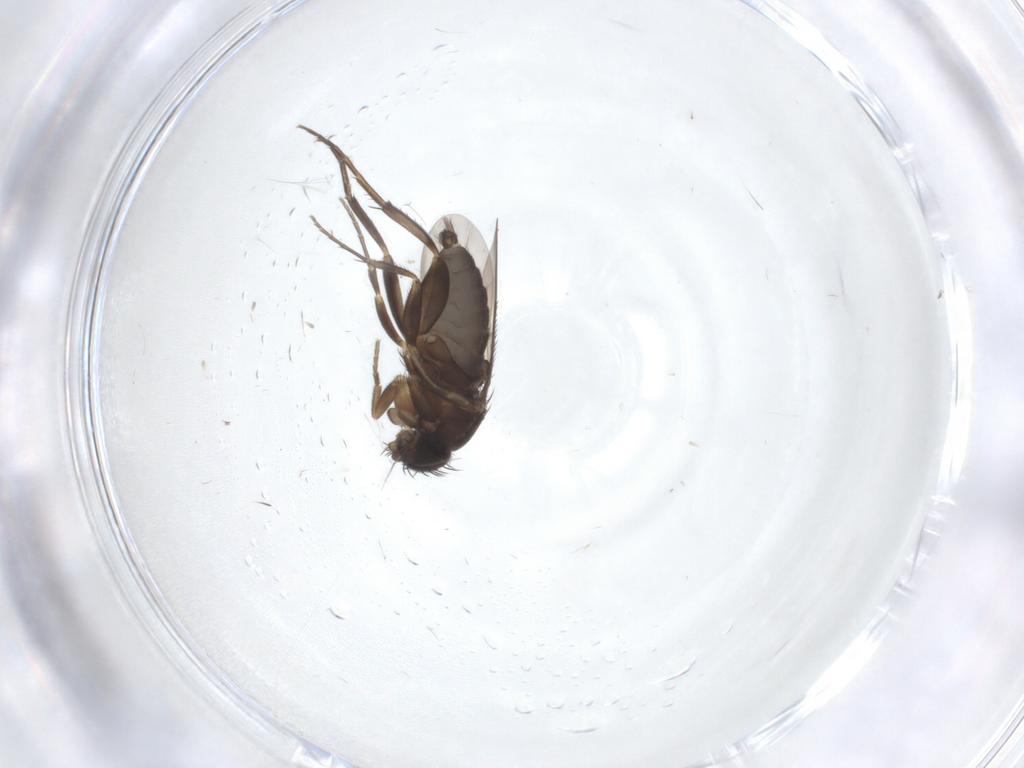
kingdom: Animalia
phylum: Arthropoda
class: Insecta
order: Diptera
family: Phoridae
